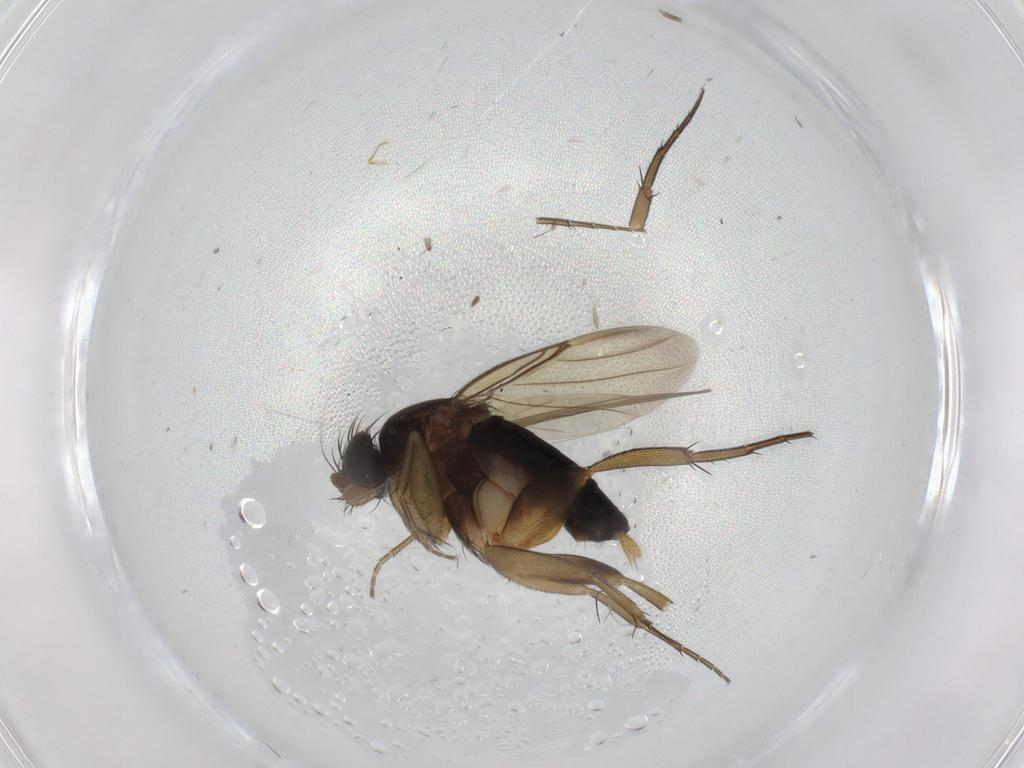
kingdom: Animalia
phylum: Arthropoda
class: Insecta
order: Diptera
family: Phoridae
